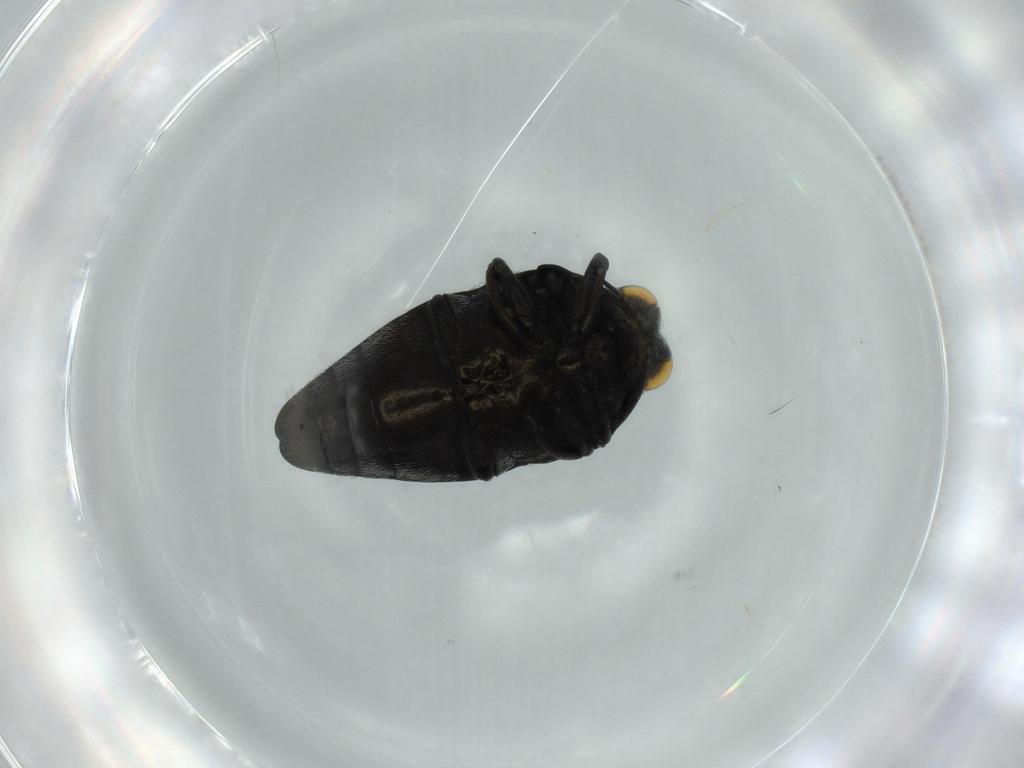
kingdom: Animalia
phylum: Arthropoda
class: Insecta
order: Coleoptera
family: Buprestidae
